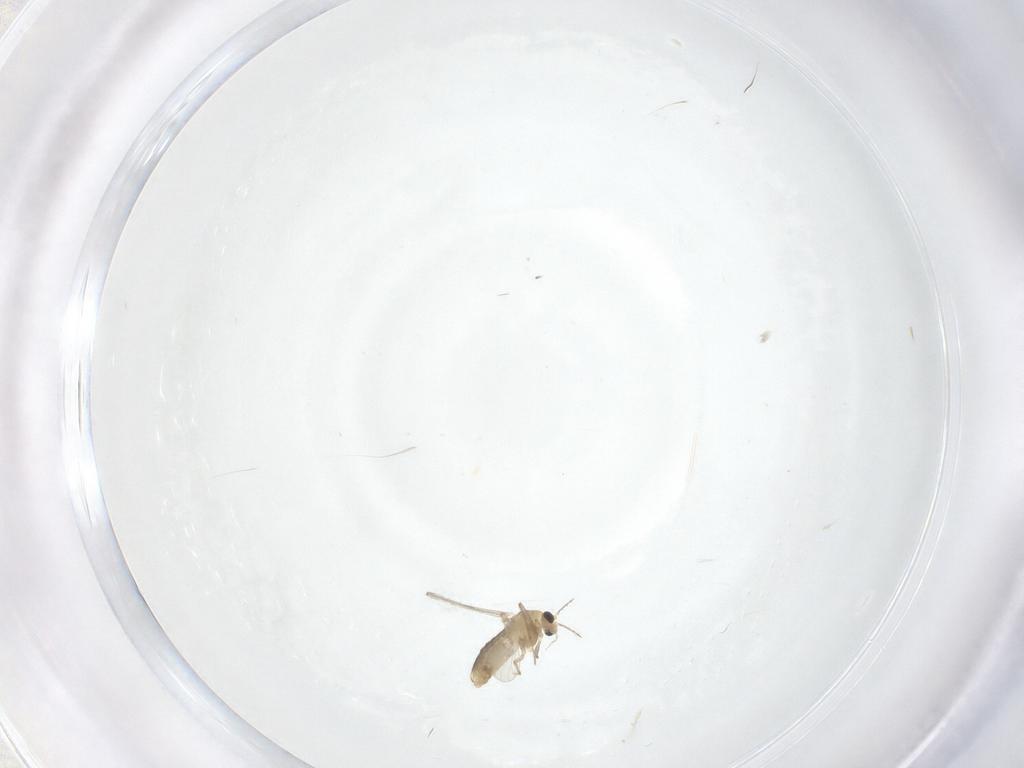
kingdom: Animalia
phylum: Arthropoda
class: Insecta
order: Diptera
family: Chironomidae
